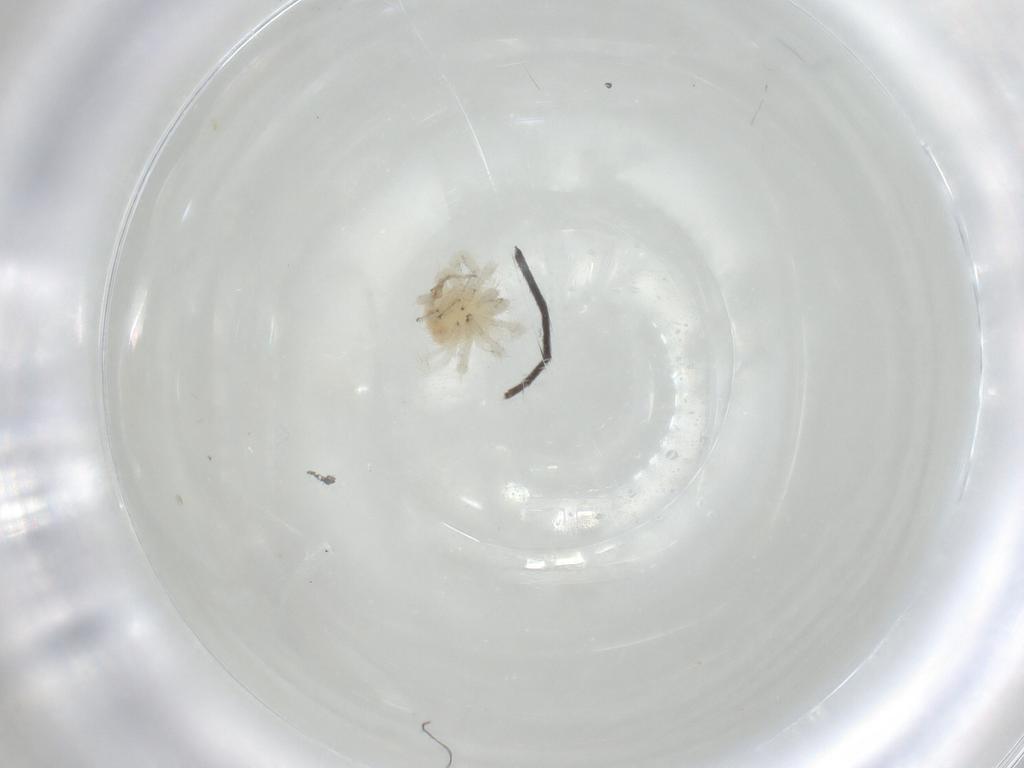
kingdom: Animalia
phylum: Arthropoda
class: Arachnida
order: Trombidiformes
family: Anystidae
